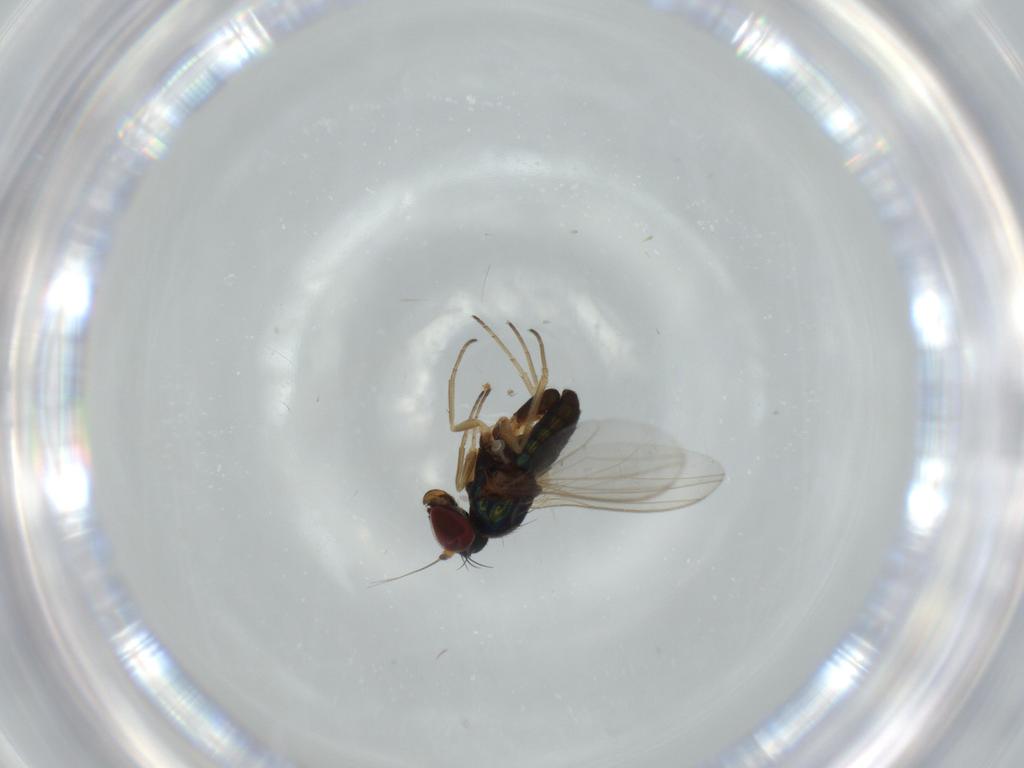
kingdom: Animalia
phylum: Arthropoda
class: Insecta
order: Diptera
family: Dolichopodidae
